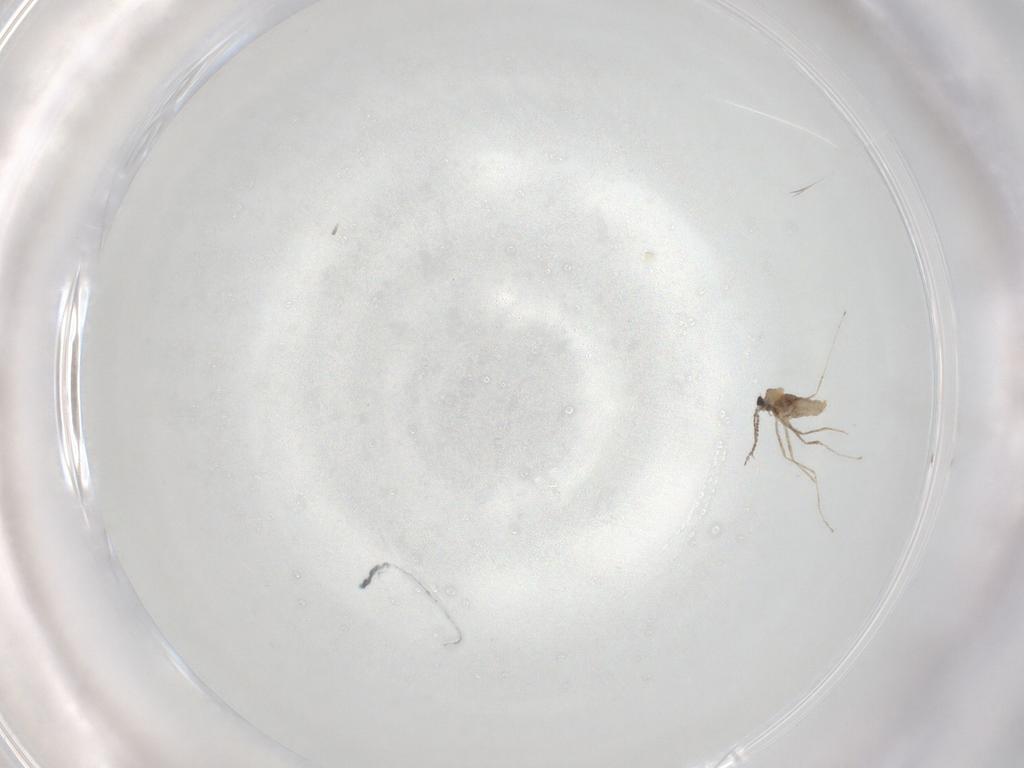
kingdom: Animalia
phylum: Arthropoda
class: Insecta
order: Diptera
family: Cecidomyiidae
